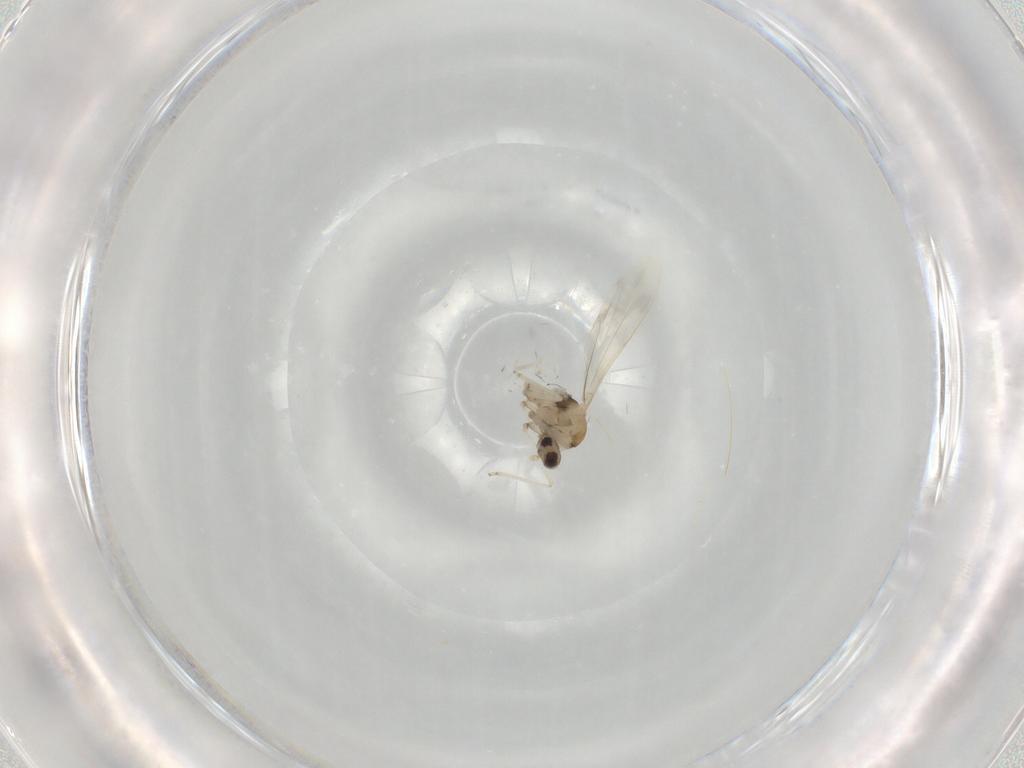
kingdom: Animalia
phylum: Arthropoda
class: Insecta
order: Diptera
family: Cecidomyiidae
